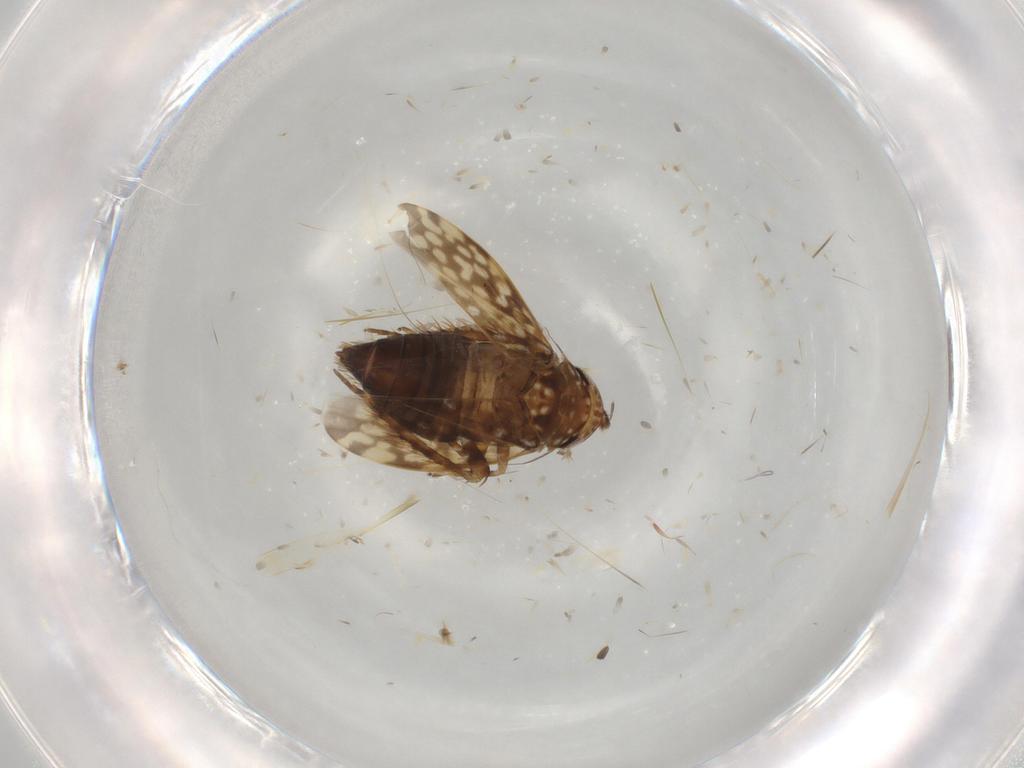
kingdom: Animalia
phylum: Arthropoda
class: Insecta
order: Hemiptera
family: Cicadellidae
